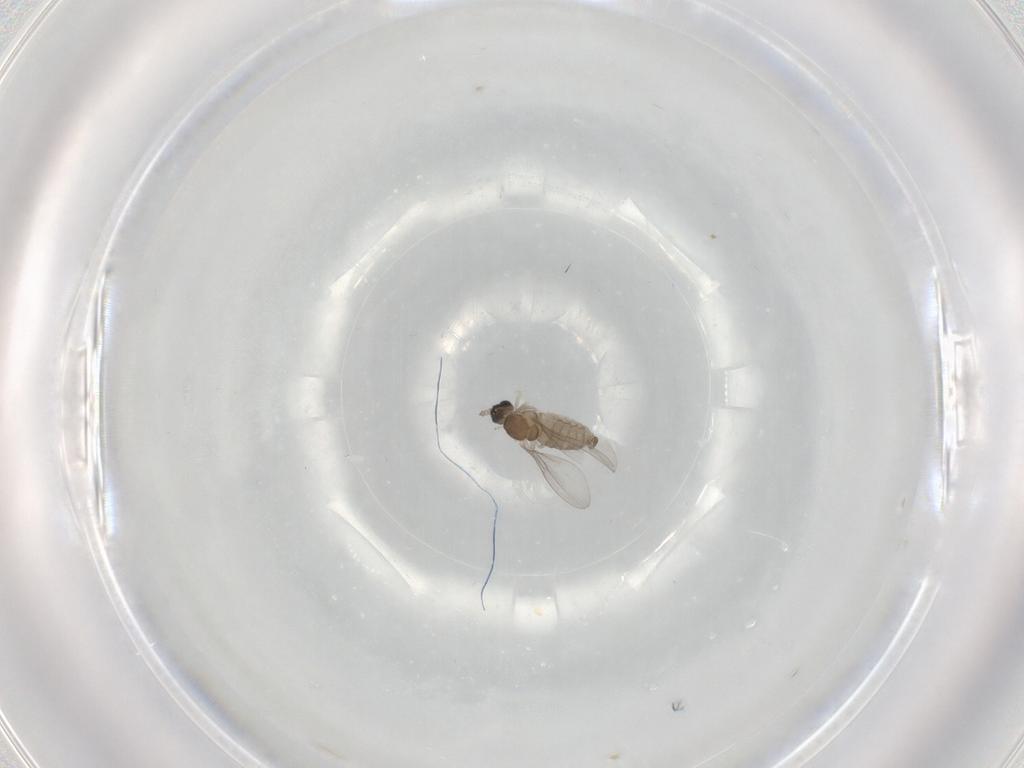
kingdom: Animalia
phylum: Arthropoda
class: Insecta
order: Diptera
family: Cecidomyiidae
